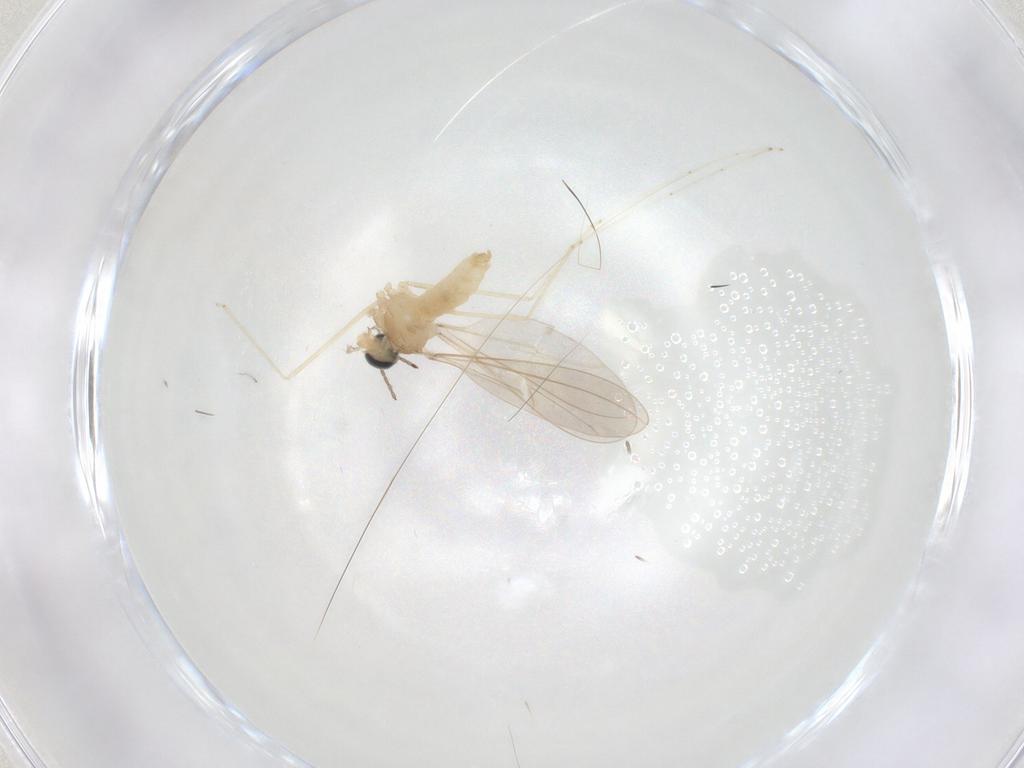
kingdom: Animalia
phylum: Arthropoda
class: Insecta
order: Diptera
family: Cecidomyiidae
